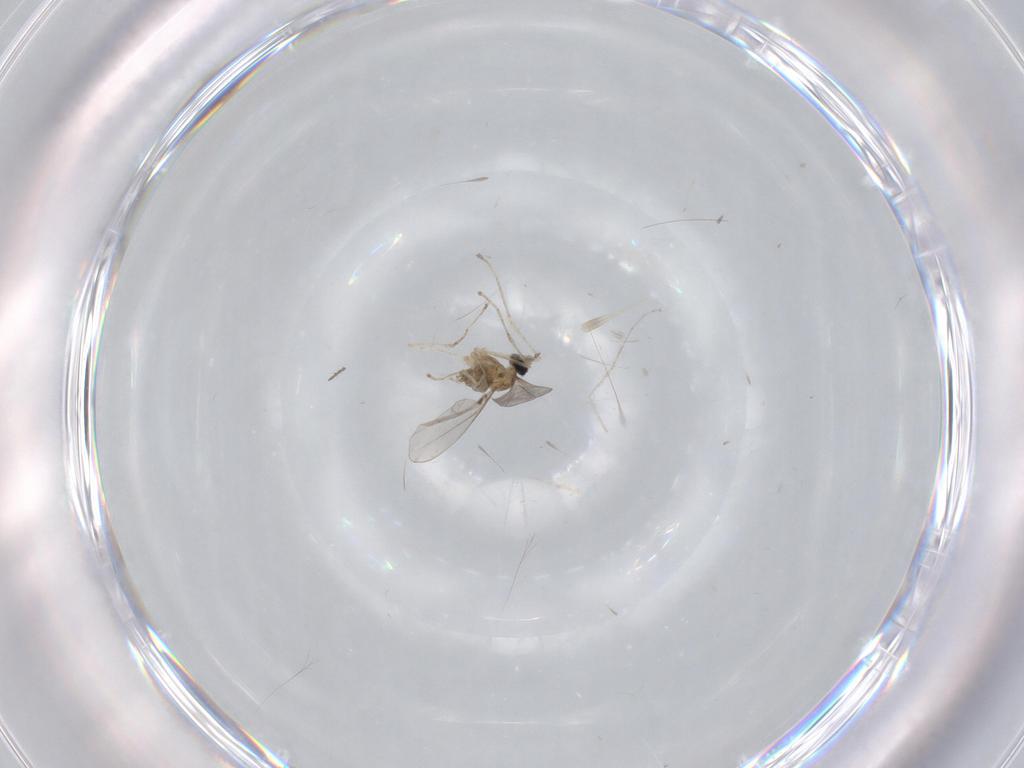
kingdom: Animalia
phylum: Arthropoda
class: Insecta
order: Diptera
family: Cecidomyiidae
